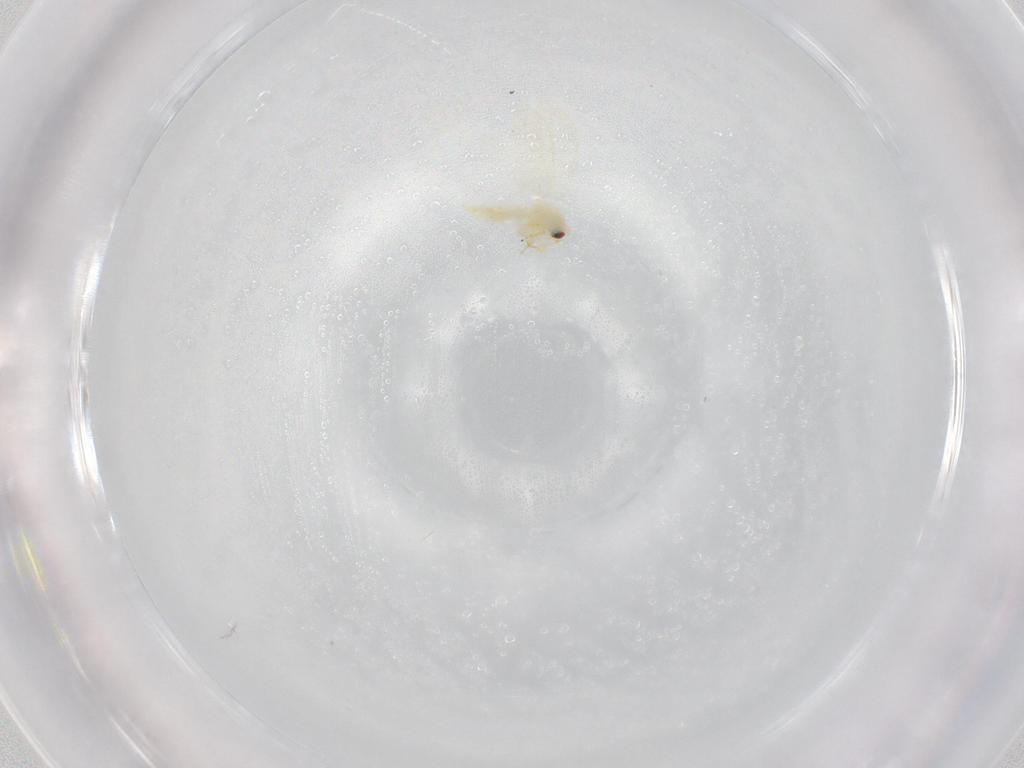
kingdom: Animalia
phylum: Arthropoda
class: Insecta
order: Hemiptera
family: Aleyrodidae
